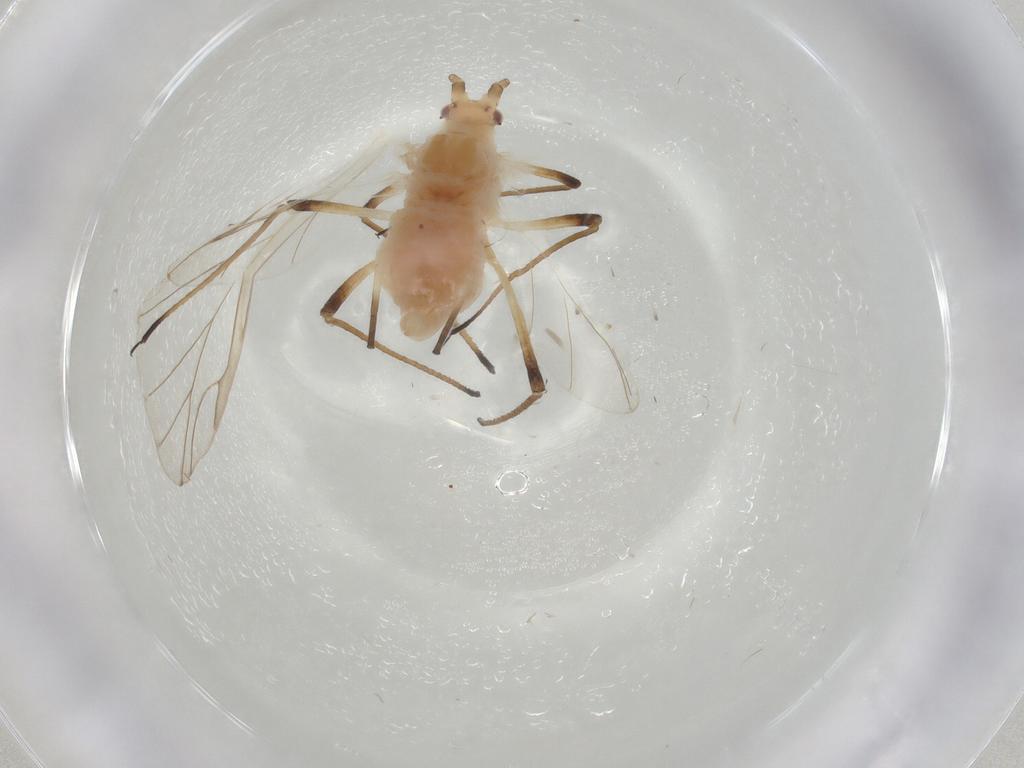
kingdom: Animalia
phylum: Arthropoda
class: Insecta
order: Hemiptera
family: Aphididae
